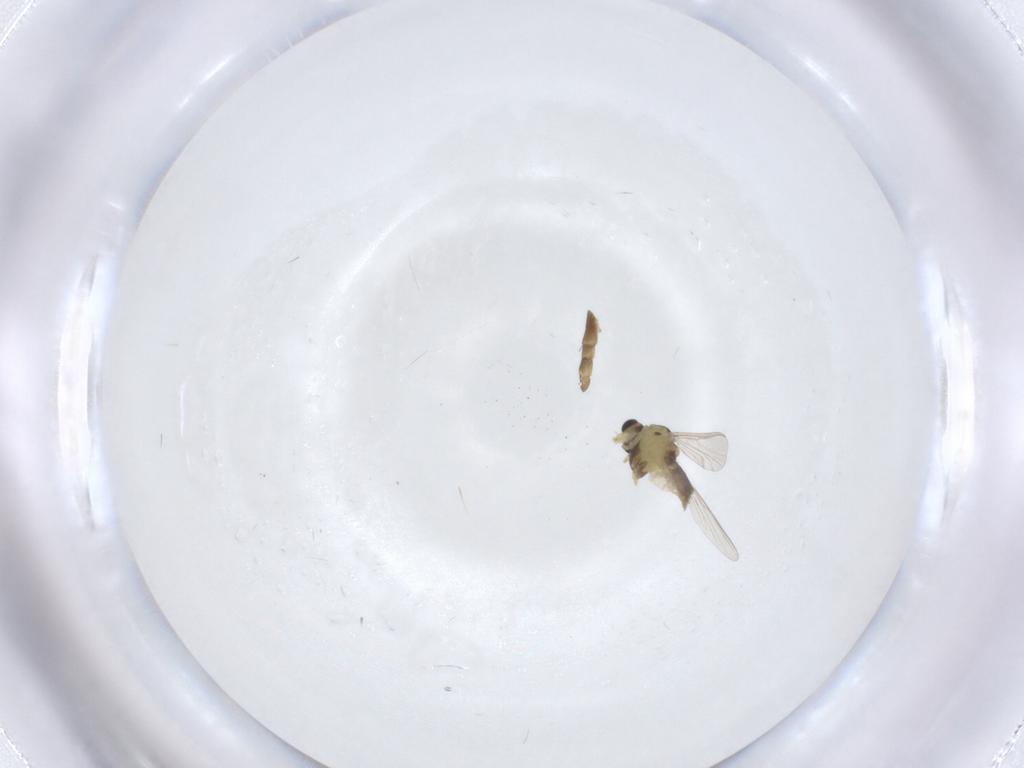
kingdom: Animalia
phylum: Arthropoda
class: Insecta
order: Diptera
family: Chironomidae
